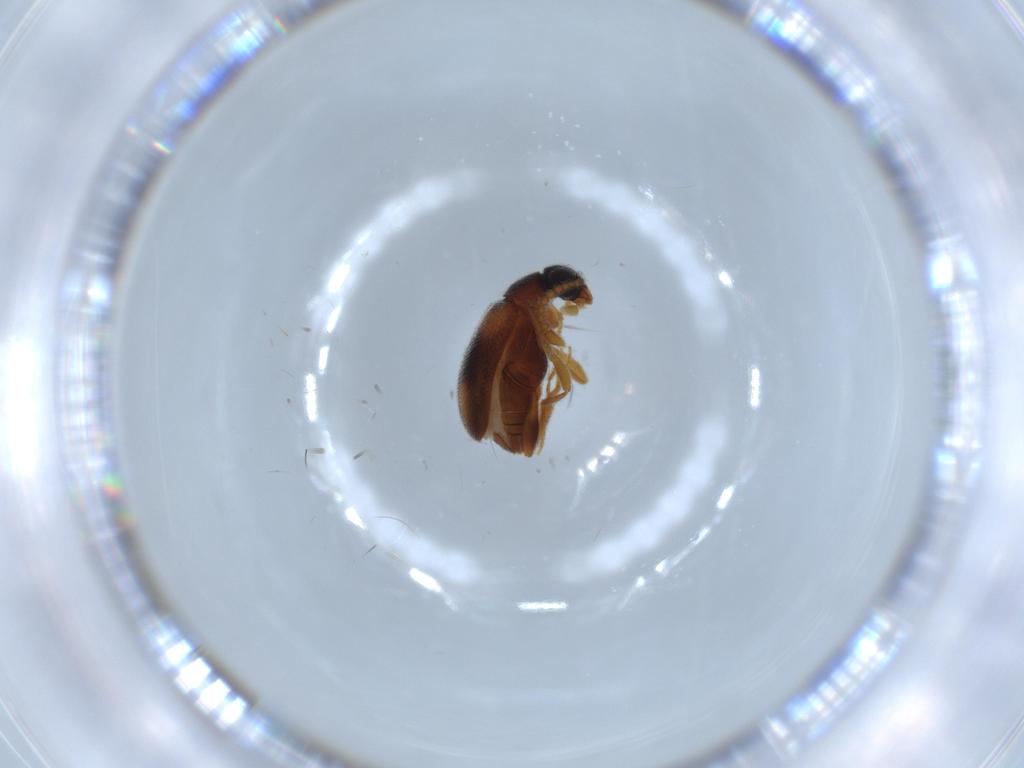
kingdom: Animalia
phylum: Arthropoda
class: Insecta
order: Coleoptera
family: Aderidae
